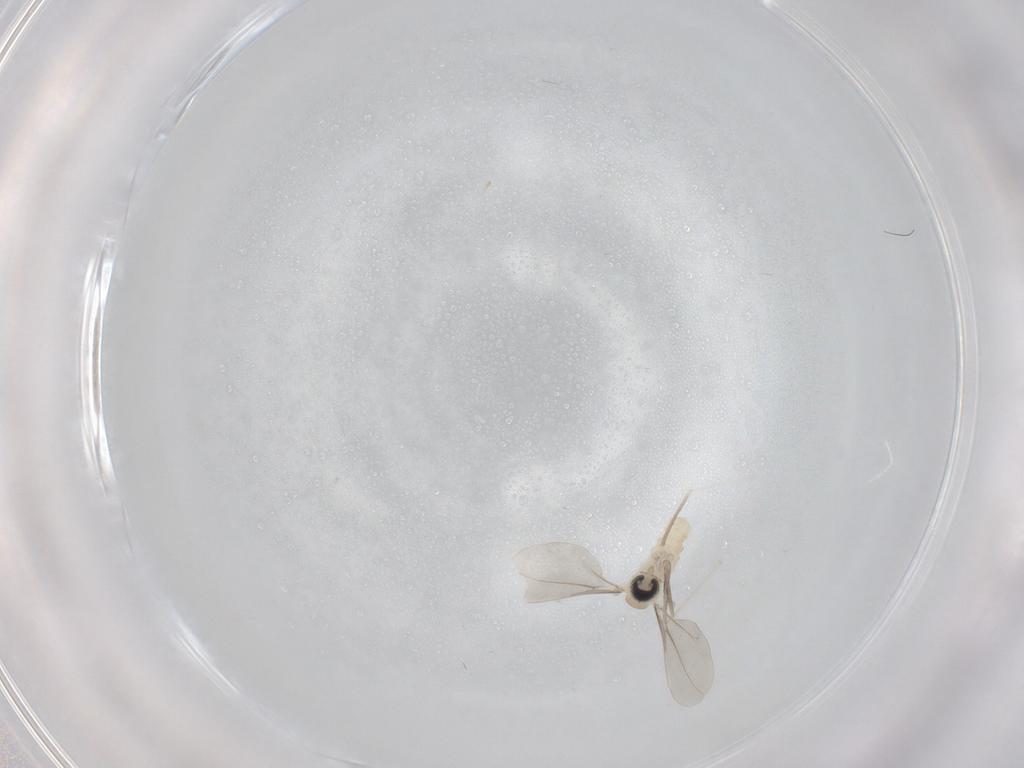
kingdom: Animalia
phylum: Arthropoda
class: Insecta
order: Diptera
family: Cecidomyiidae
